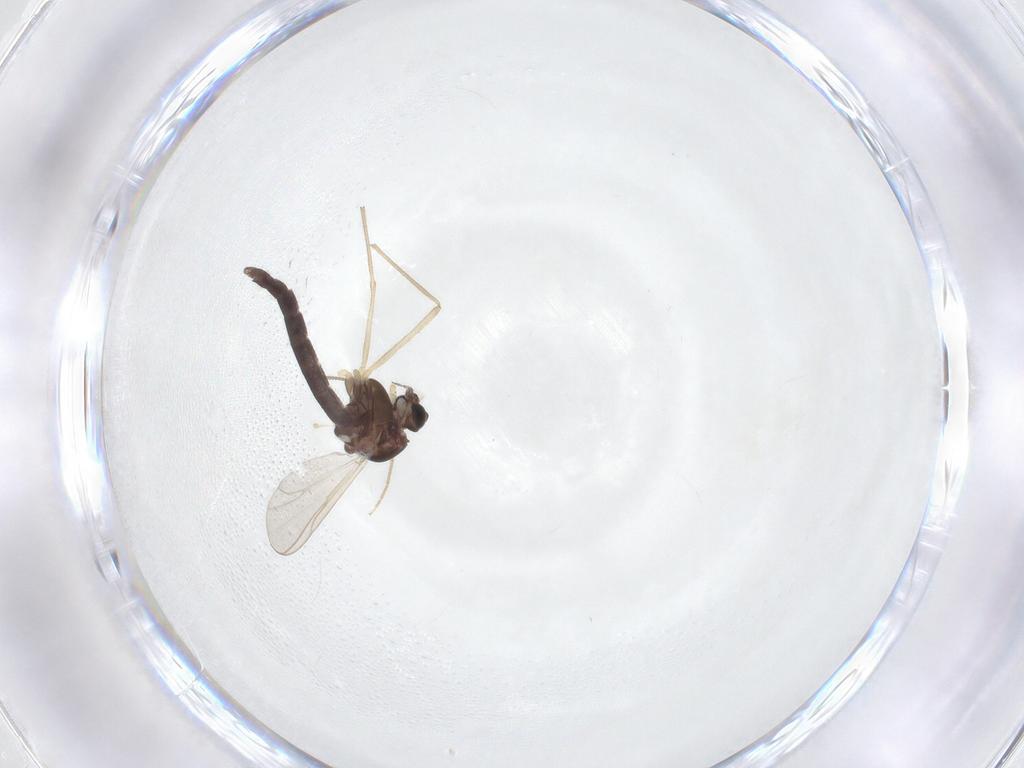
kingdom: Animalia
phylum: Arthropoda
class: Insecta
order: Diptera
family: Chironomidae
